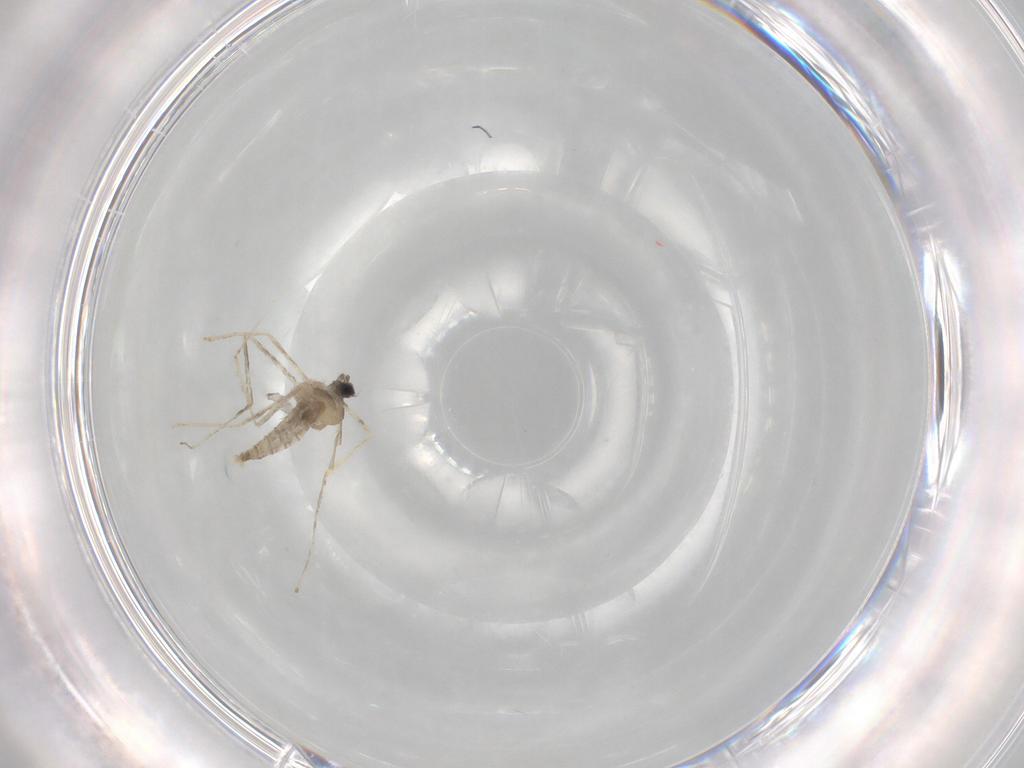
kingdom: Animalia
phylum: Arthropoda
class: Insecta
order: Diptera
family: Cecidomyiidae
